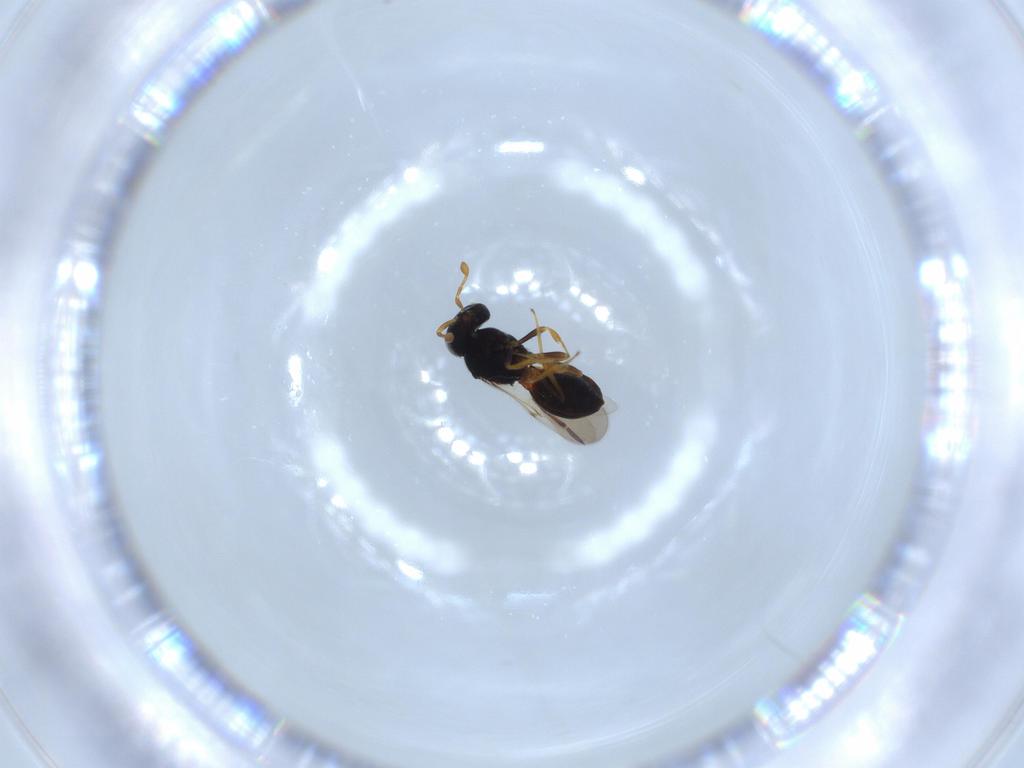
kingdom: Animalia
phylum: Arthropoda
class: Insecta
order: Hymenoptera
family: Scelionidae
